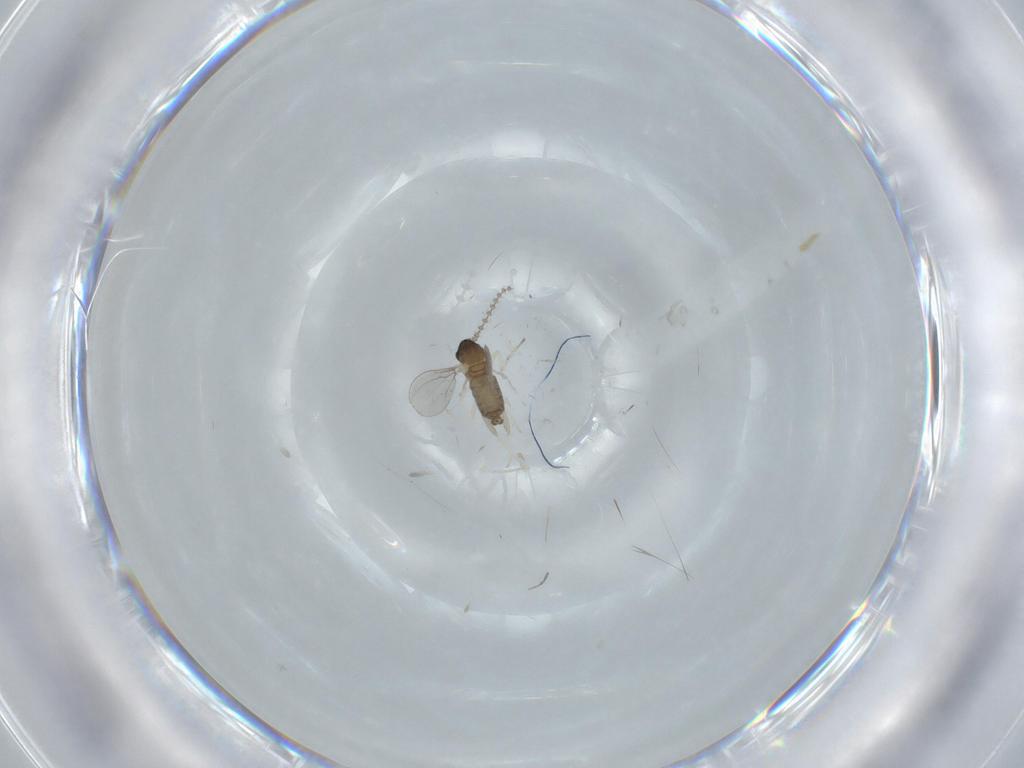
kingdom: Animalia
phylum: Arthropoda
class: Insecta
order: Diptera
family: Cecidomyiidae
